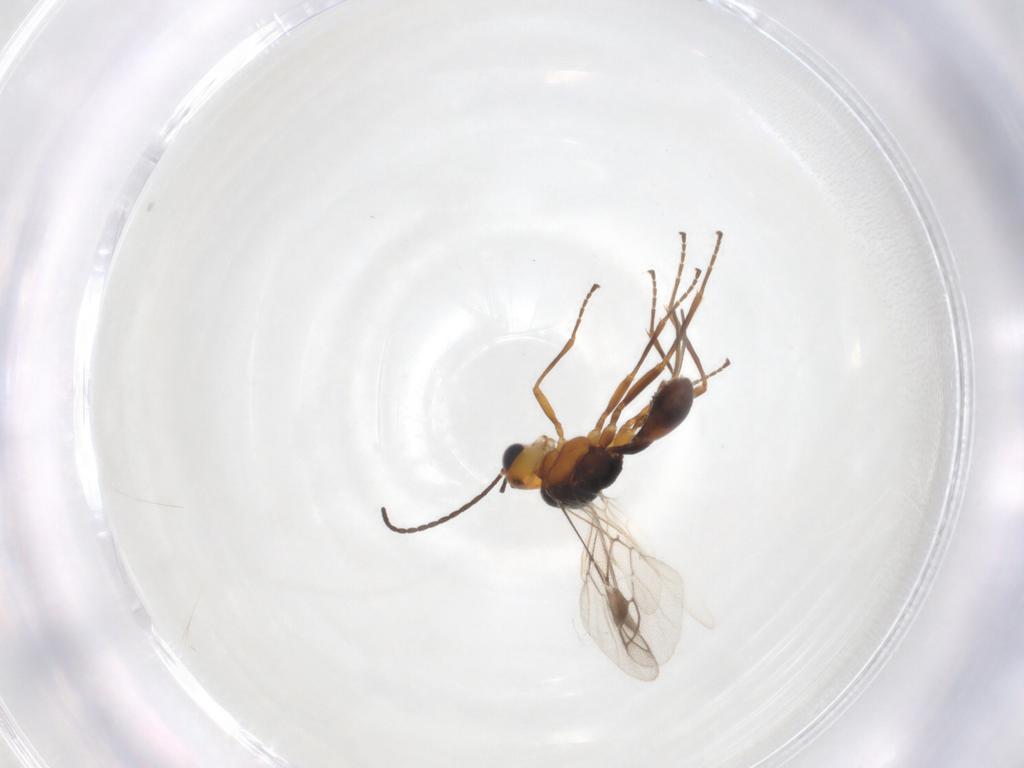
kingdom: Animalia
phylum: Arthropoda
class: Insecta
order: Hymenoptera
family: Braconidae
